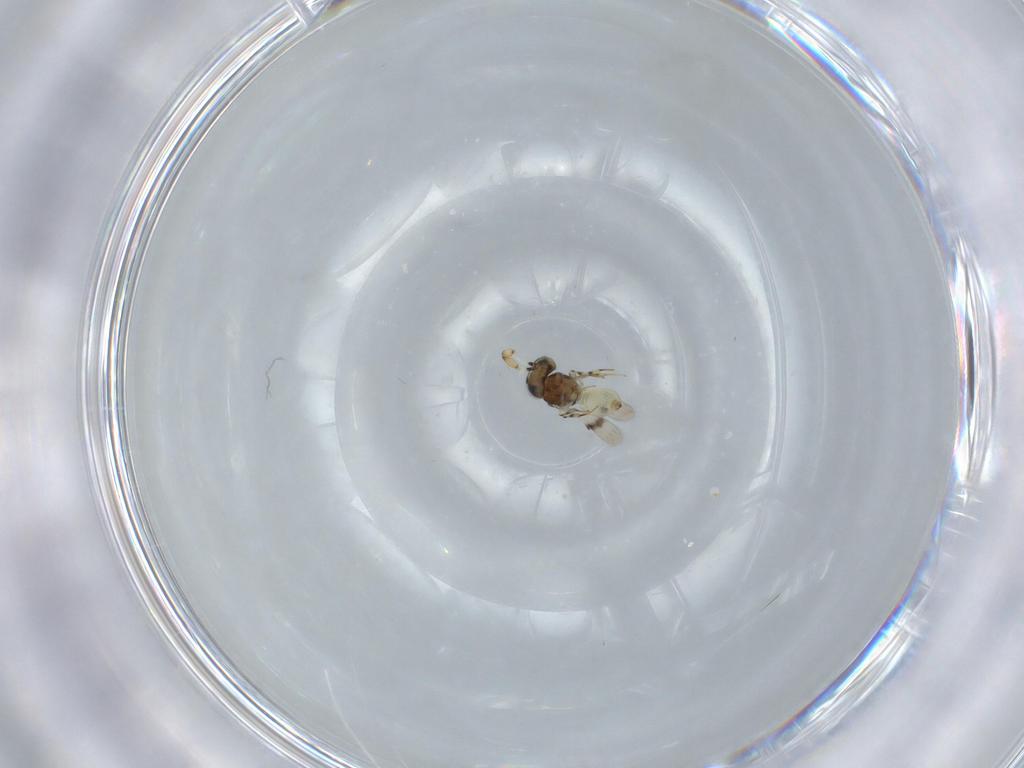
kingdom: Animalia
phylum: Arthropoda
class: Insecta
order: Hymenoptera
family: Scelionidae
